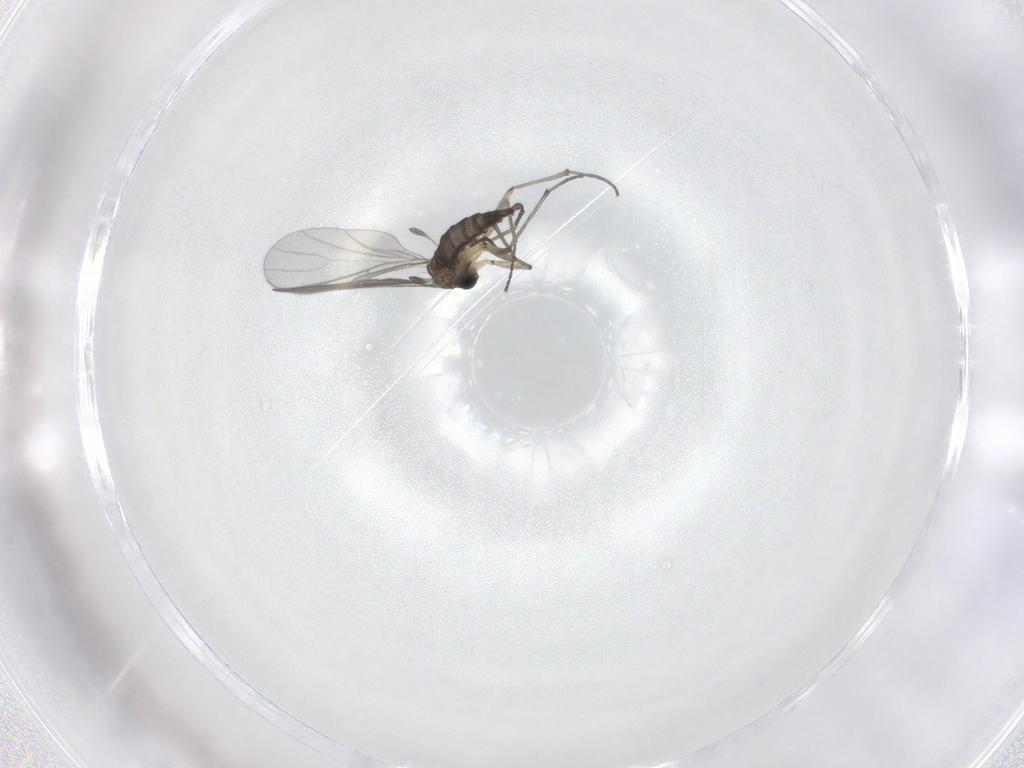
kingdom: Animalia
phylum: Arthropoda
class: Insecta
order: Diptera
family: Sciaridae
